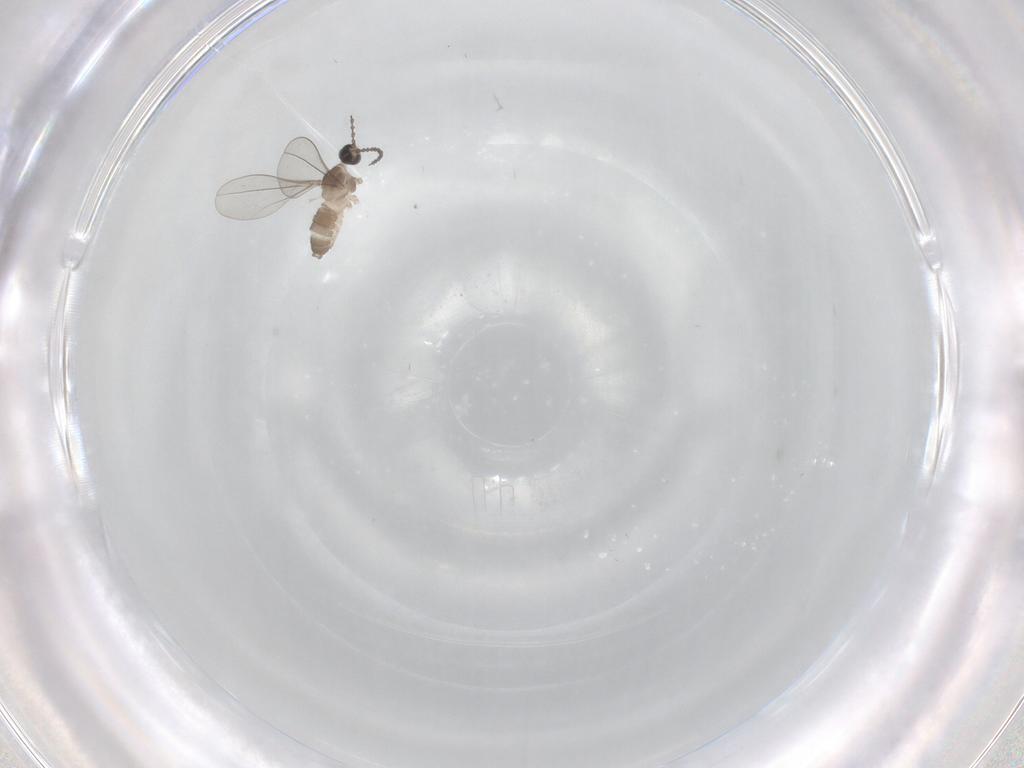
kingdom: Animalia
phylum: Arthropoda
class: Insecta
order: Diptera
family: Cecidomyiidae
